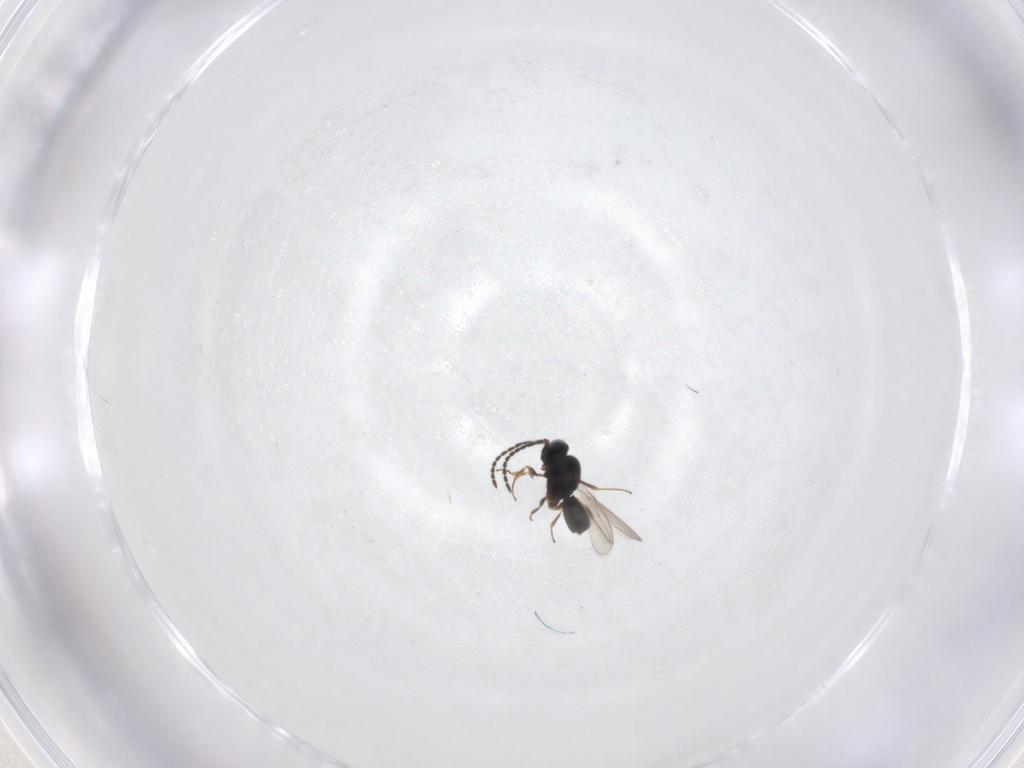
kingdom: Animalia
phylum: Arthropoda
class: Insecta
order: Hymenoptera
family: Scelionidae
